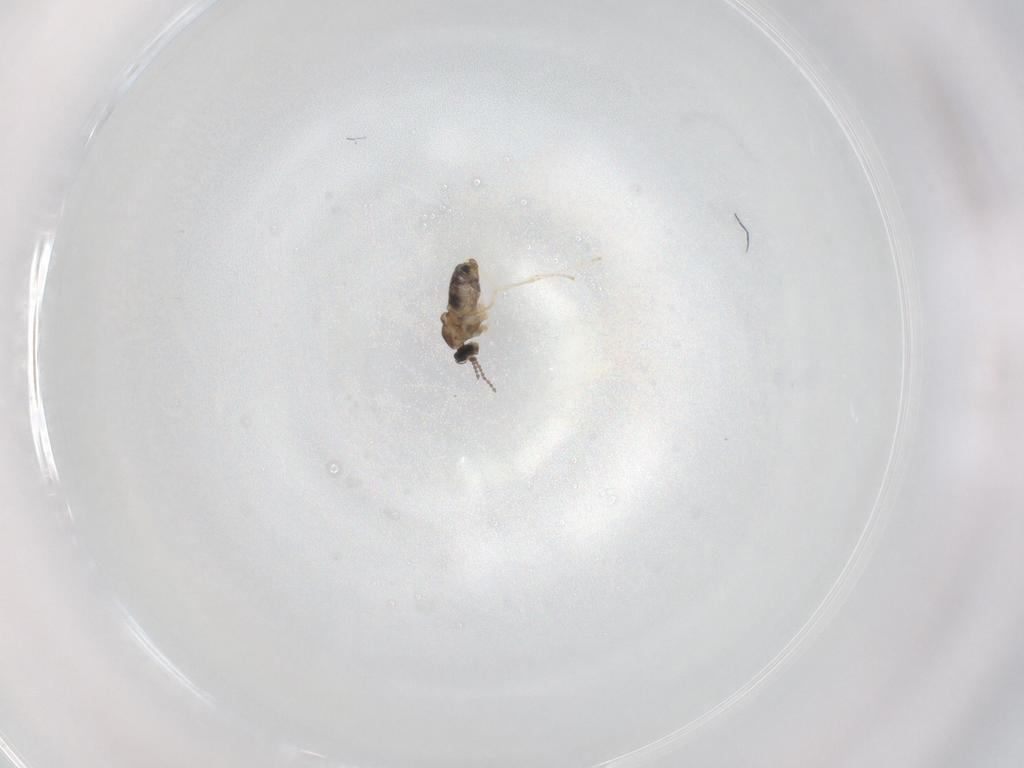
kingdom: Animalia
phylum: Arthropoda
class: Insecta
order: Diptera
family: Cecidomyiidae
